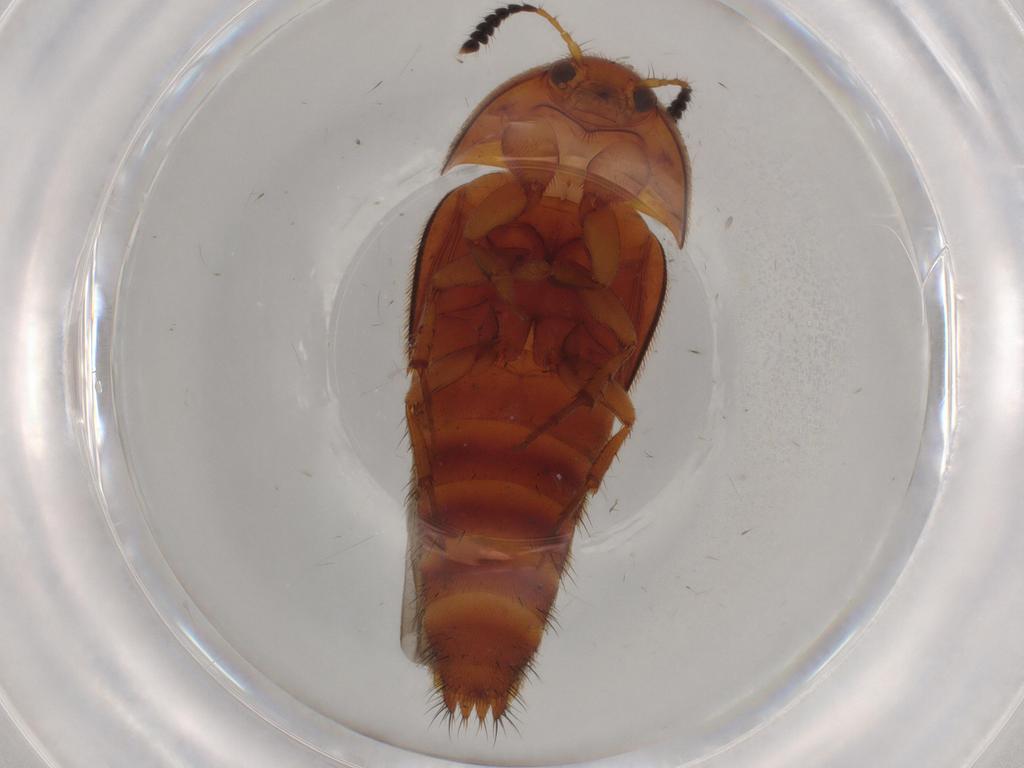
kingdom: Animalia
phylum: Arthropoda
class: Insecta
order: Coleoptera
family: Staphylinidae
